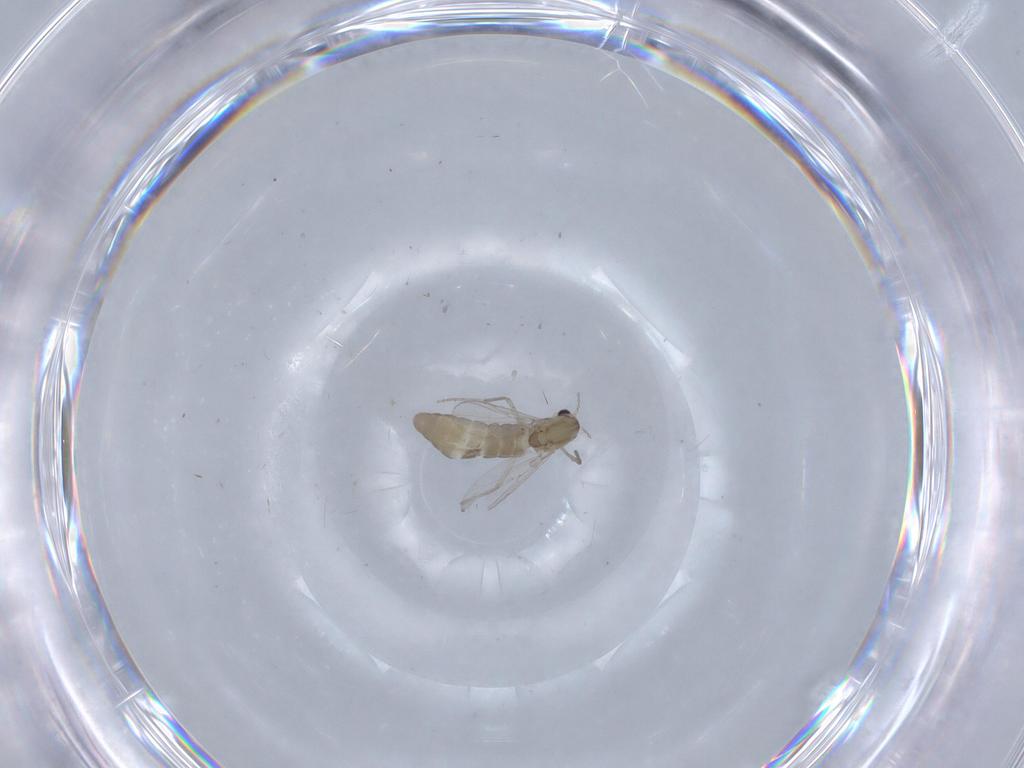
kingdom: Animalia
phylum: Arthropoda
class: Insecta
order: Diptera
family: Chironomidae
